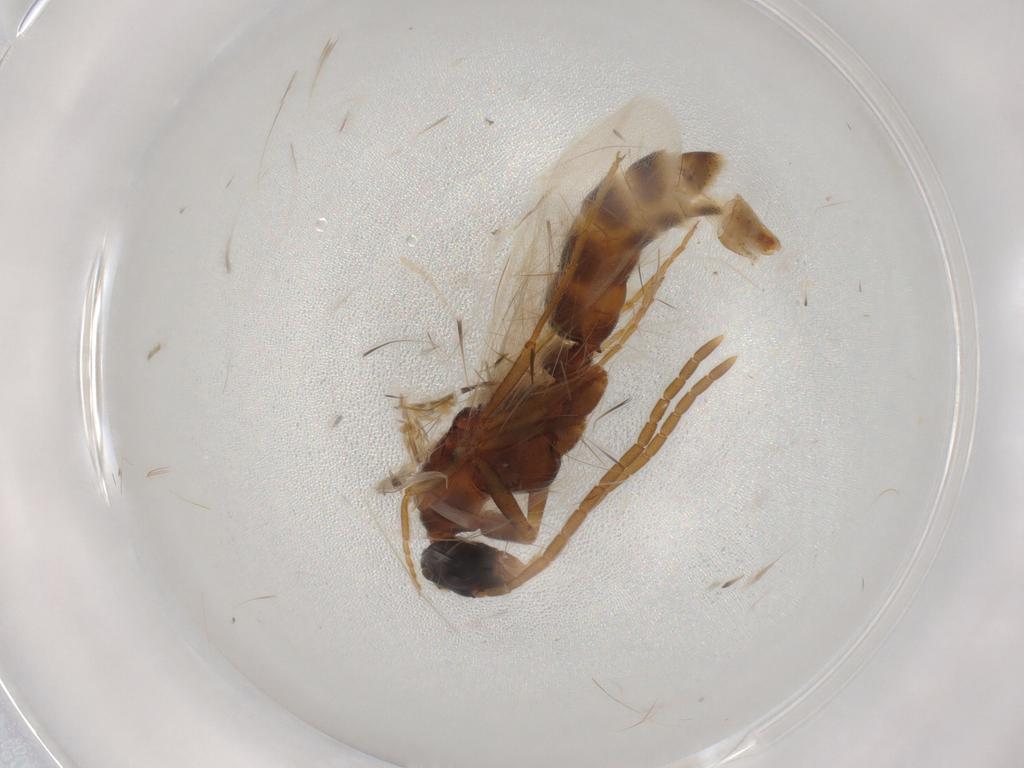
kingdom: Animalia
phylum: Arthropoda
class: Insecta
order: Hymenoptera
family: Formicidae
